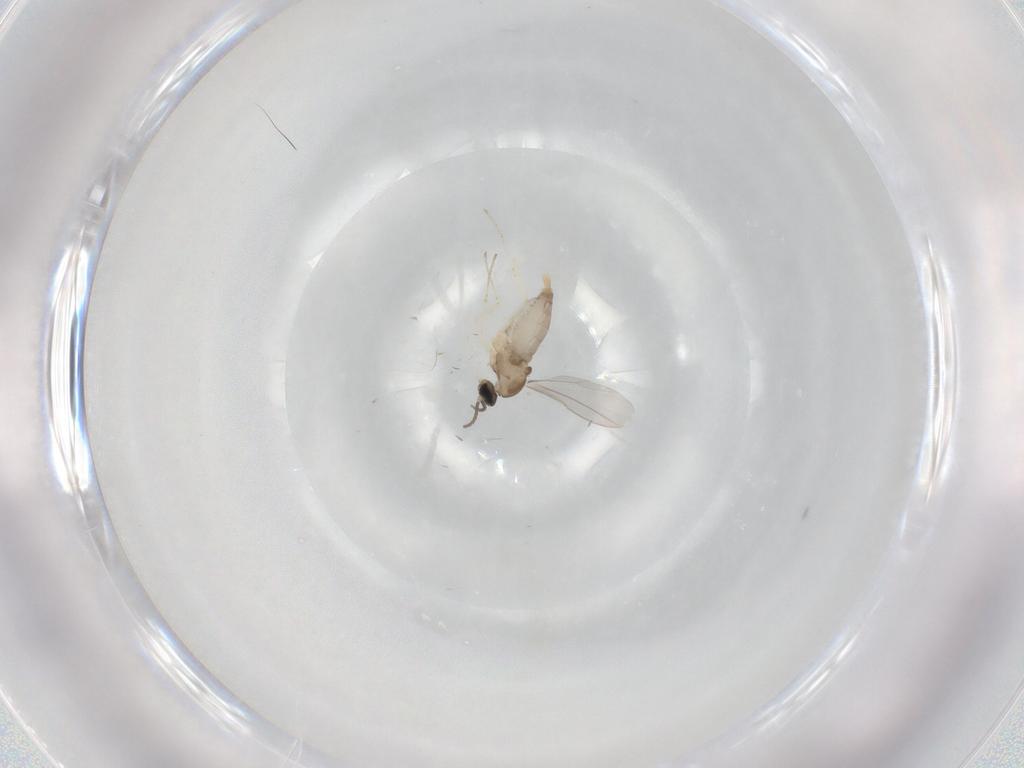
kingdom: Animalia
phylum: Arthropoda
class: Insecta
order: Diptera
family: Cecidomyiidae
